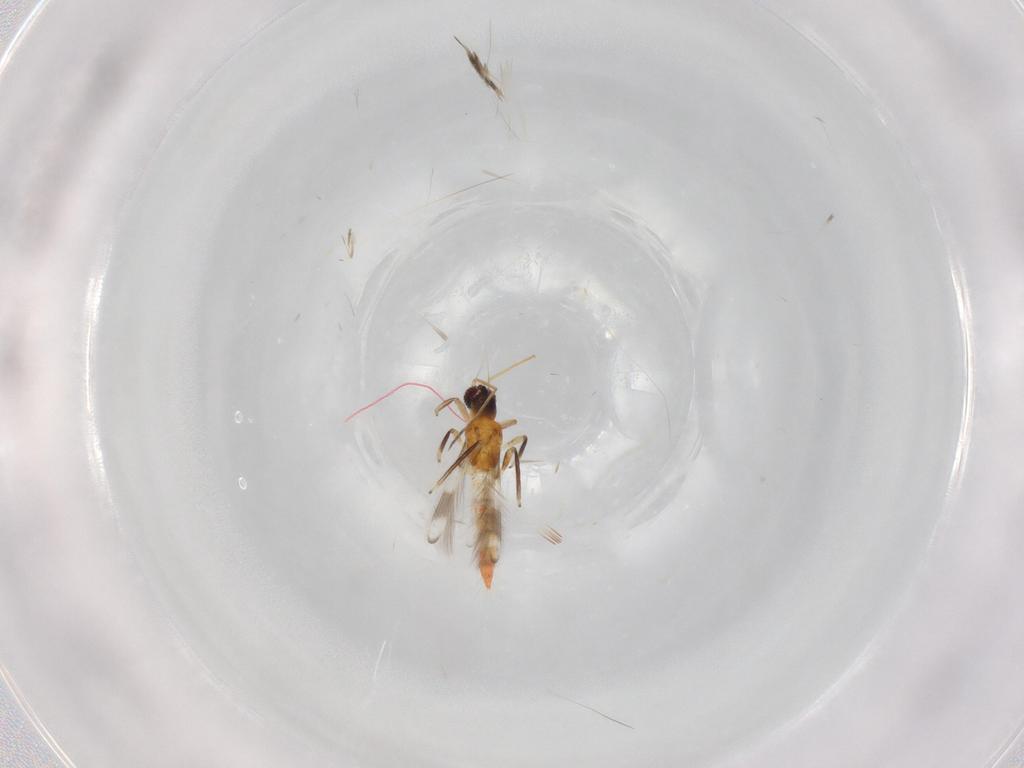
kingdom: Animalia
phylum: Arthropoda
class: Insecta
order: Thysanoptera
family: Aeolothripidae
